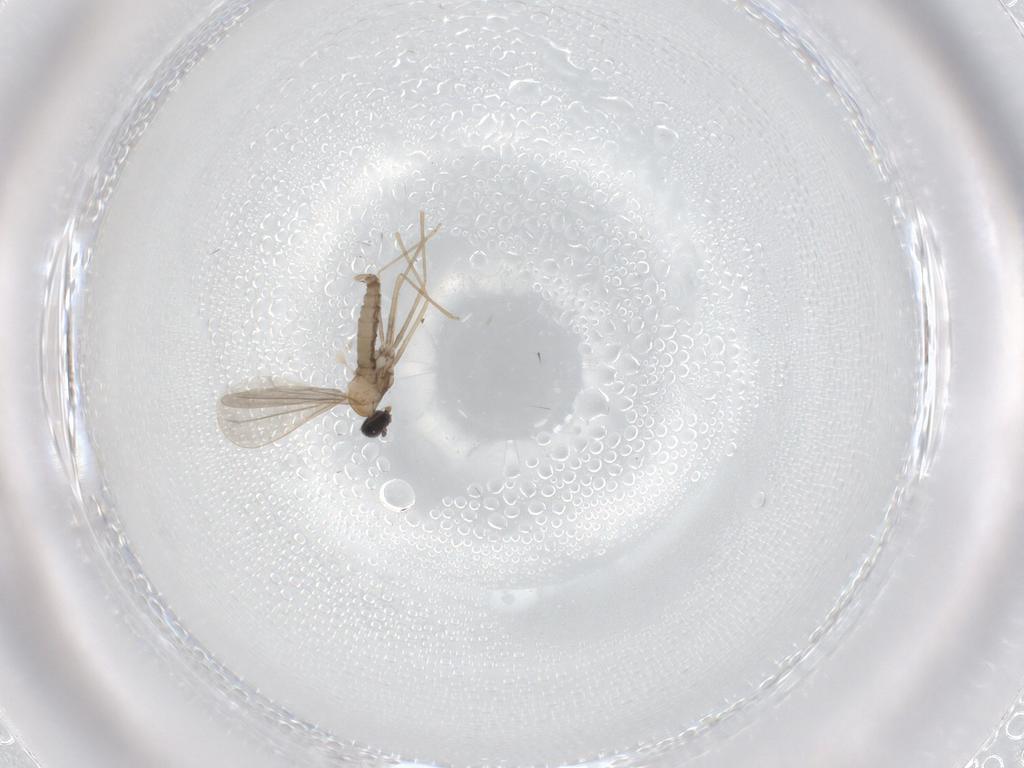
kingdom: Animalia
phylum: Arthropoda
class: Insecta
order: Diptera
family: Cecidomyiidae
